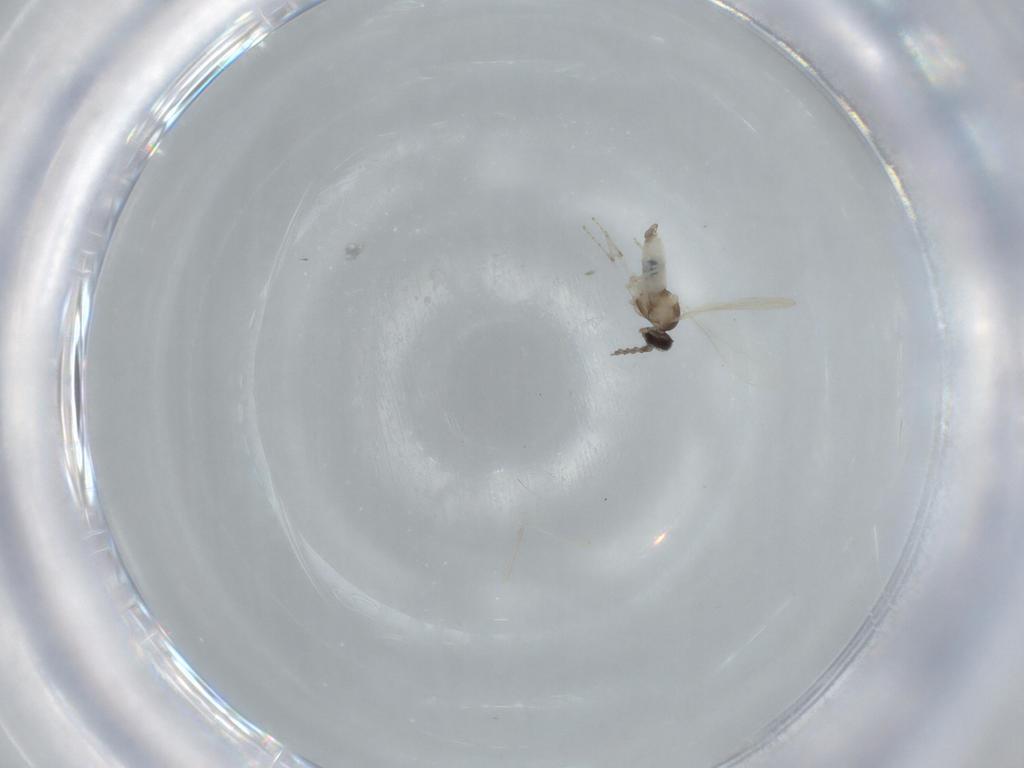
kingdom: Animalia
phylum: Arthropoda
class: Insecta
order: Diptera
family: Cecidomyiidae
